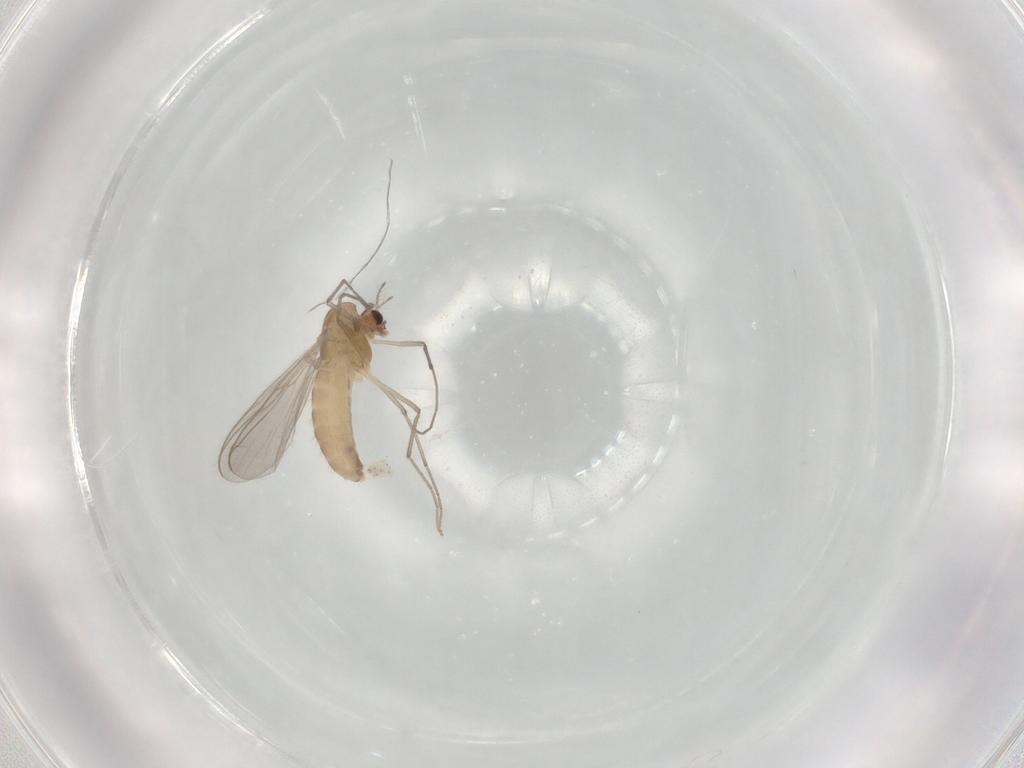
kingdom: Animalia
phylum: Arthropoda
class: Insecta
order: Diptera
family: Chironomidae
